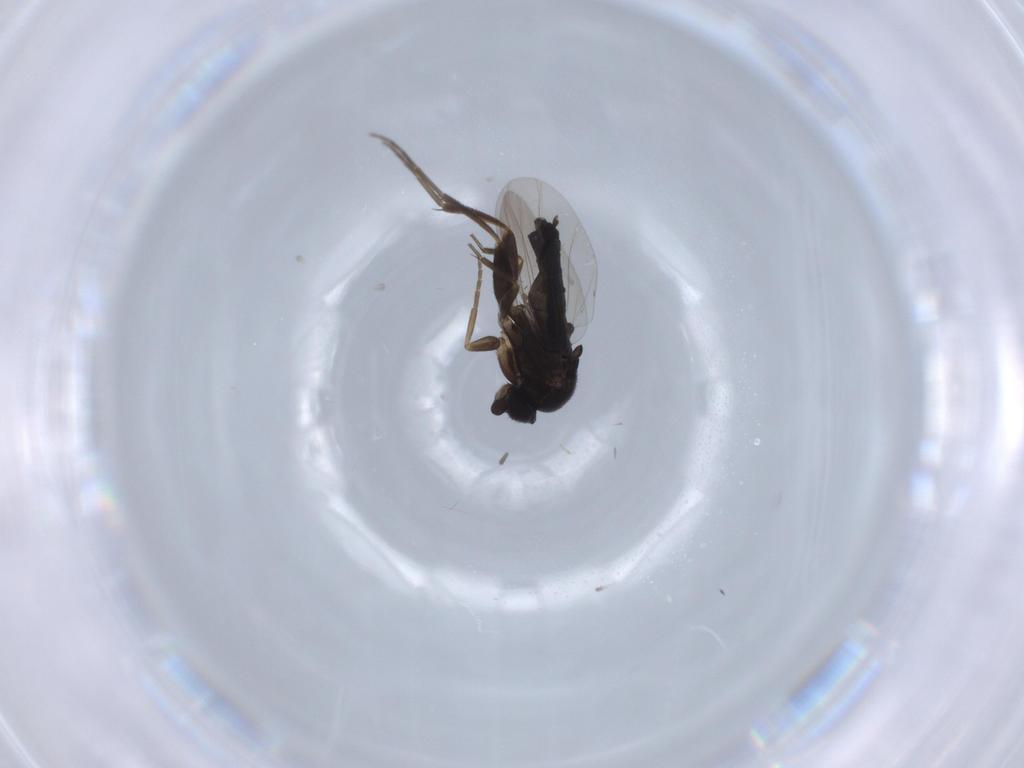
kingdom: Animalia
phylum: Arthropoda
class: Insecta
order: Diptera
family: Phoridae
